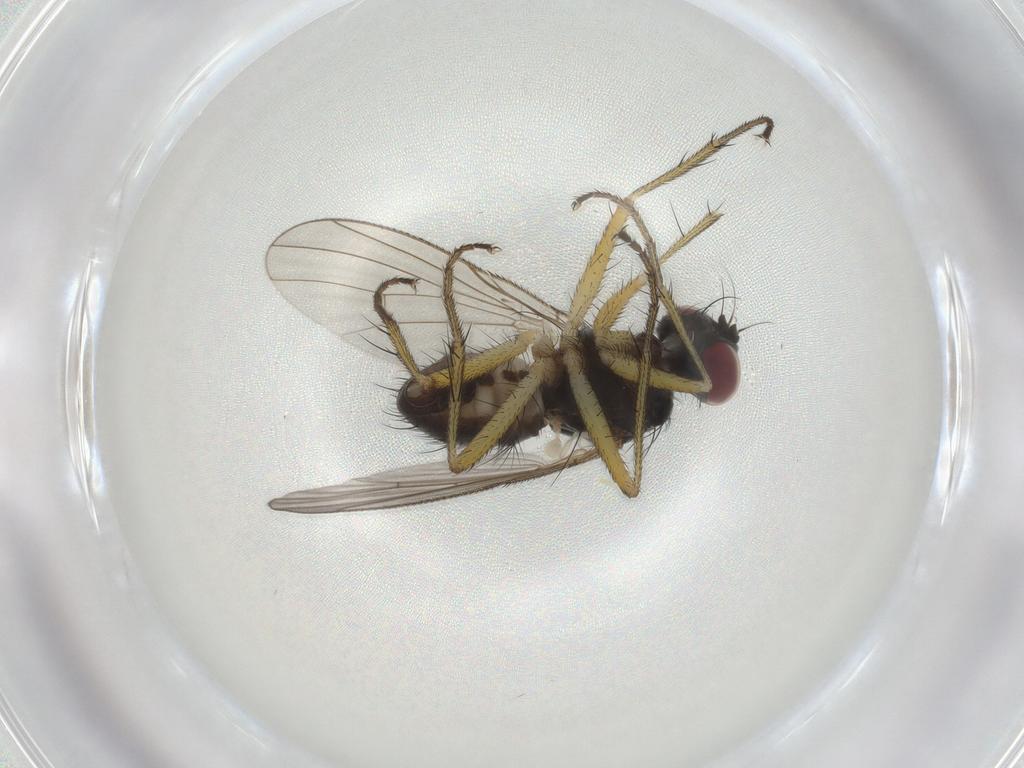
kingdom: Animalia
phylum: Arthropoda
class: Insecta
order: Diptera
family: Muscidae
